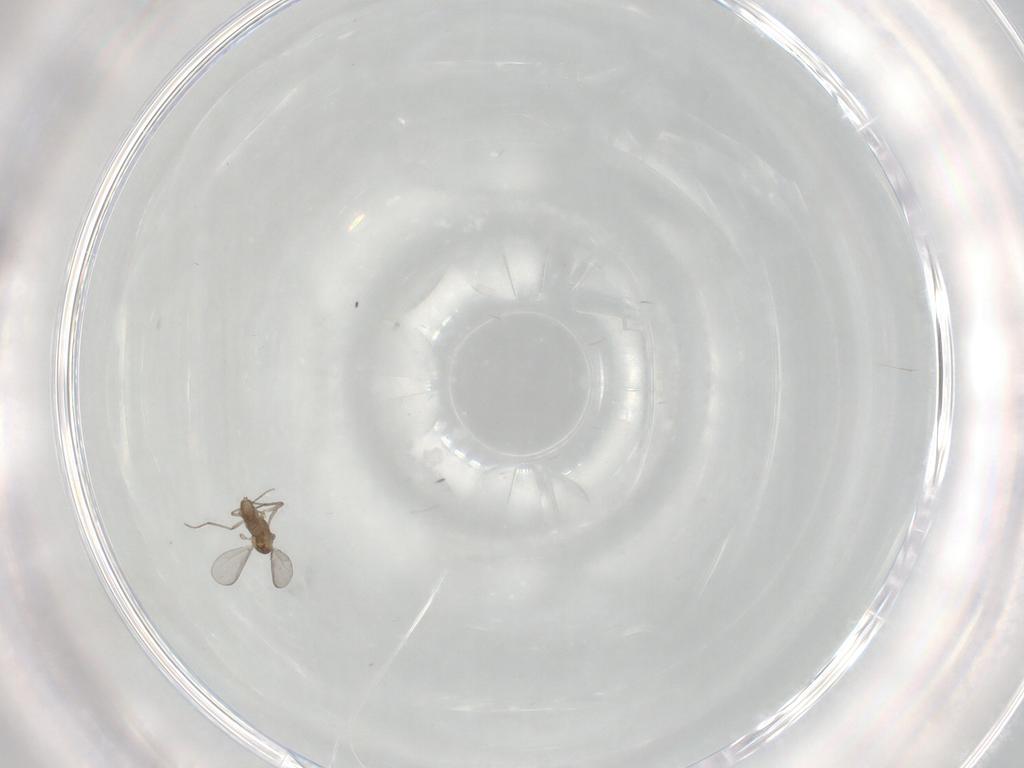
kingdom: Animalia
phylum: Arthropoda
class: Insecta
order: Diptera
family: Chironomidae
